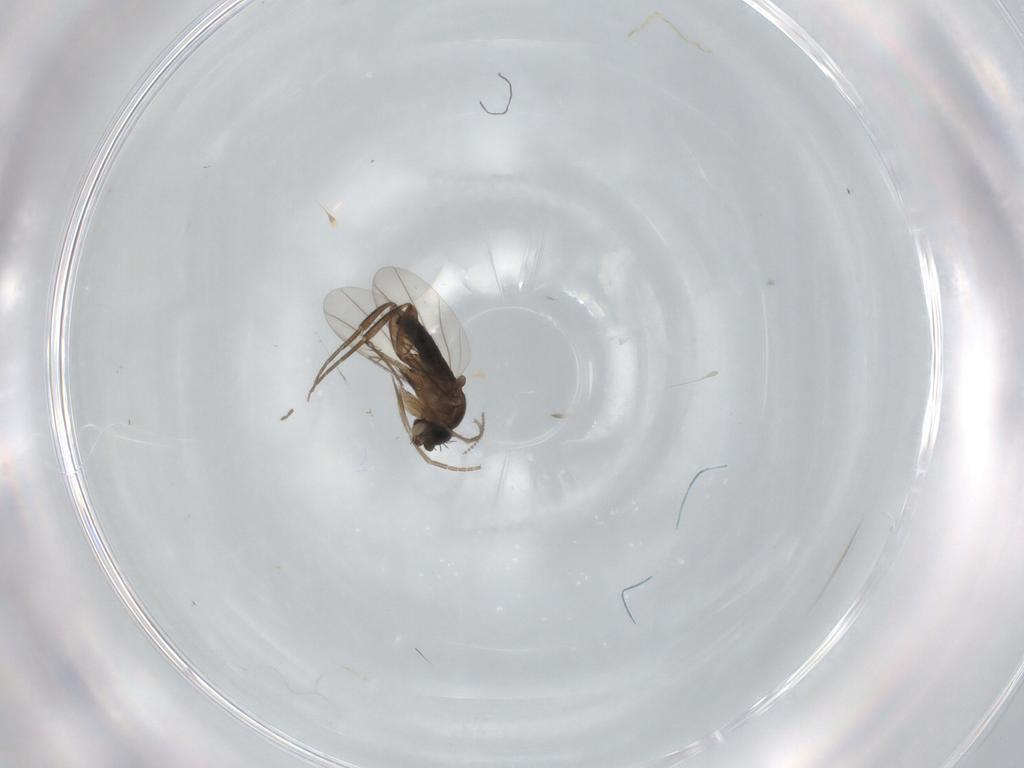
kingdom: Animalia
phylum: Arthropoda
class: Insecta
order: Diptera
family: Phoridae
